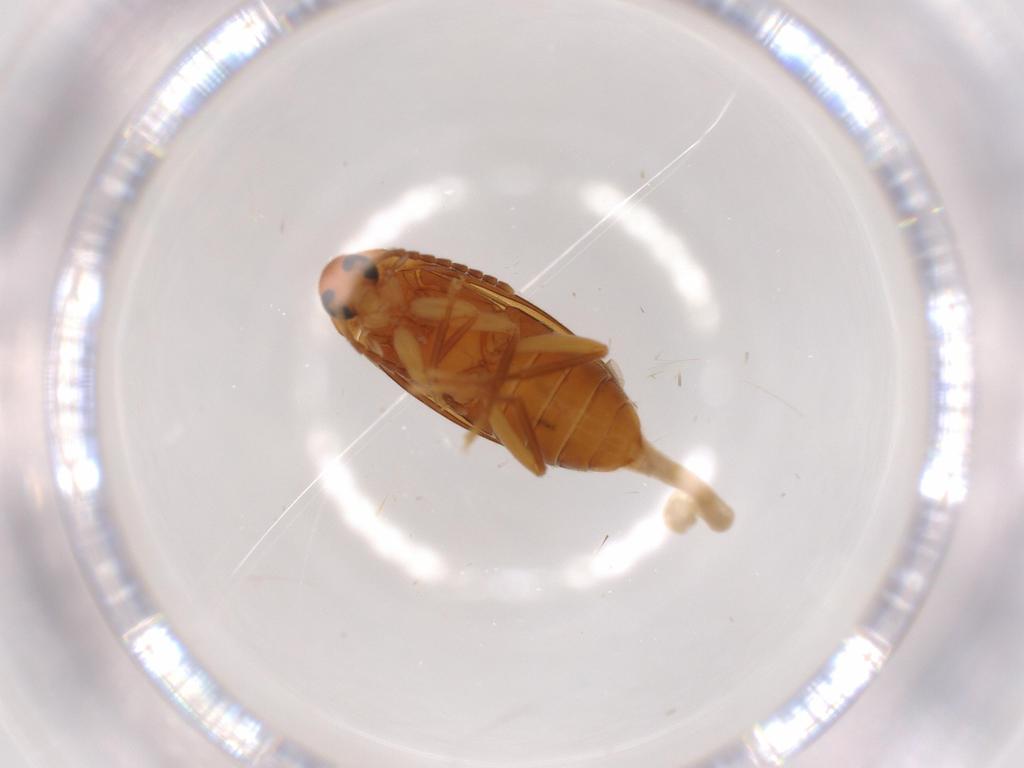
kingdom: Animalia
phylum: Arthropoda
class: Insecta
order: Coleoptera
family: Cerambycidae
